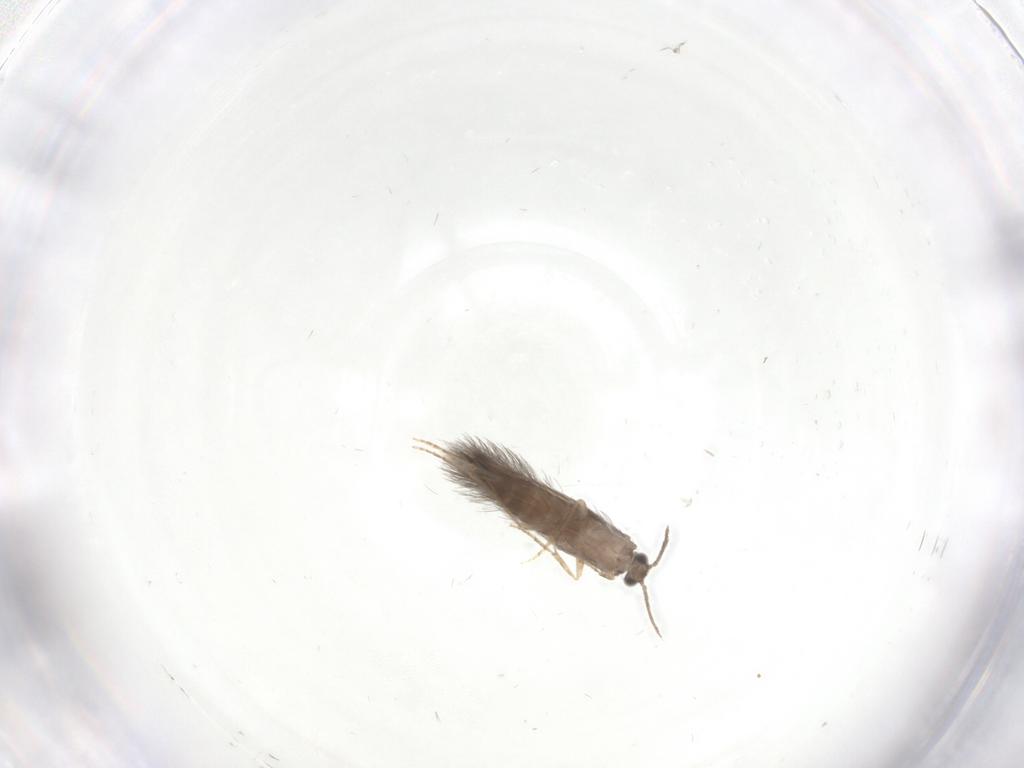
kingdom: Animalia
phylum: Arthropoda
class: Insecta
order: Trichoptera
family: Hydroptilidae
